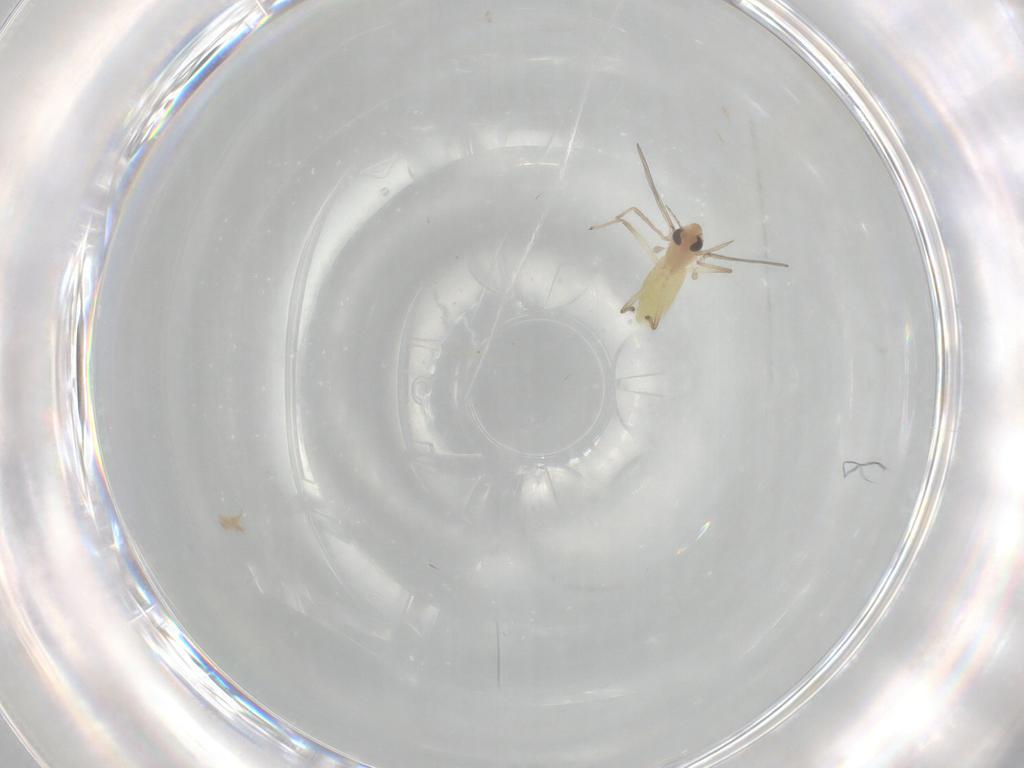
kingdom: Animalia
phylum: Arthropoda
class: Insecta
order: Diptera
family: Chironomidae
